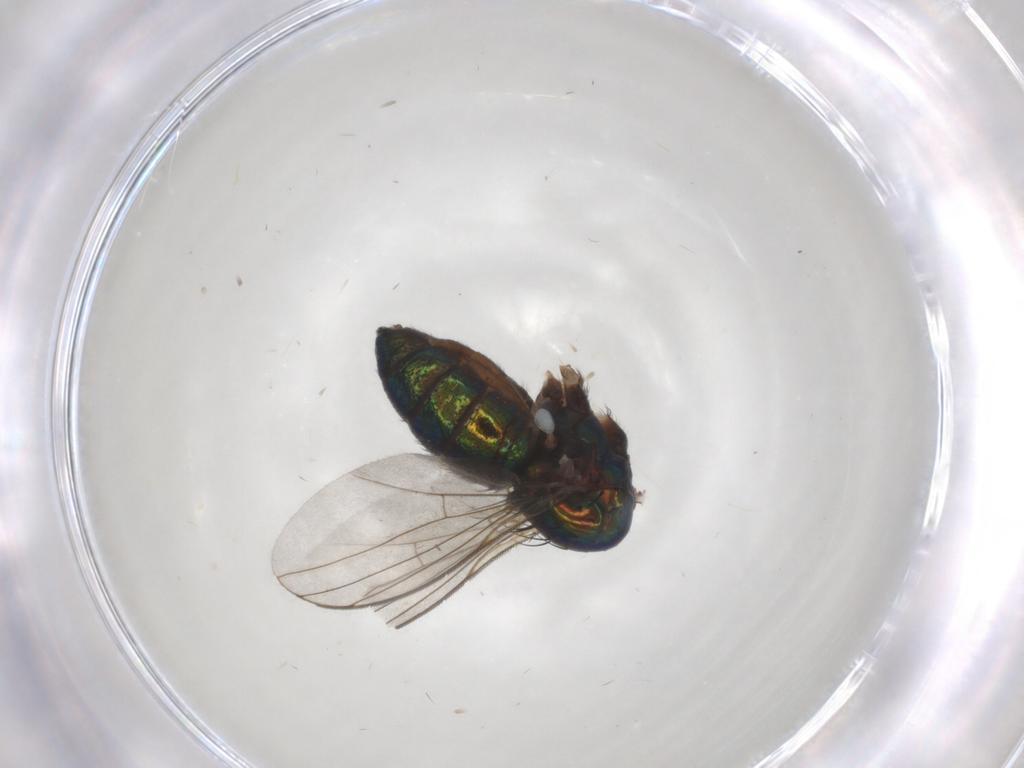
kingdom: Animalia
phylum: Arthropoda
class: Insecta
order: Diptera
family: Dolichopodidae
